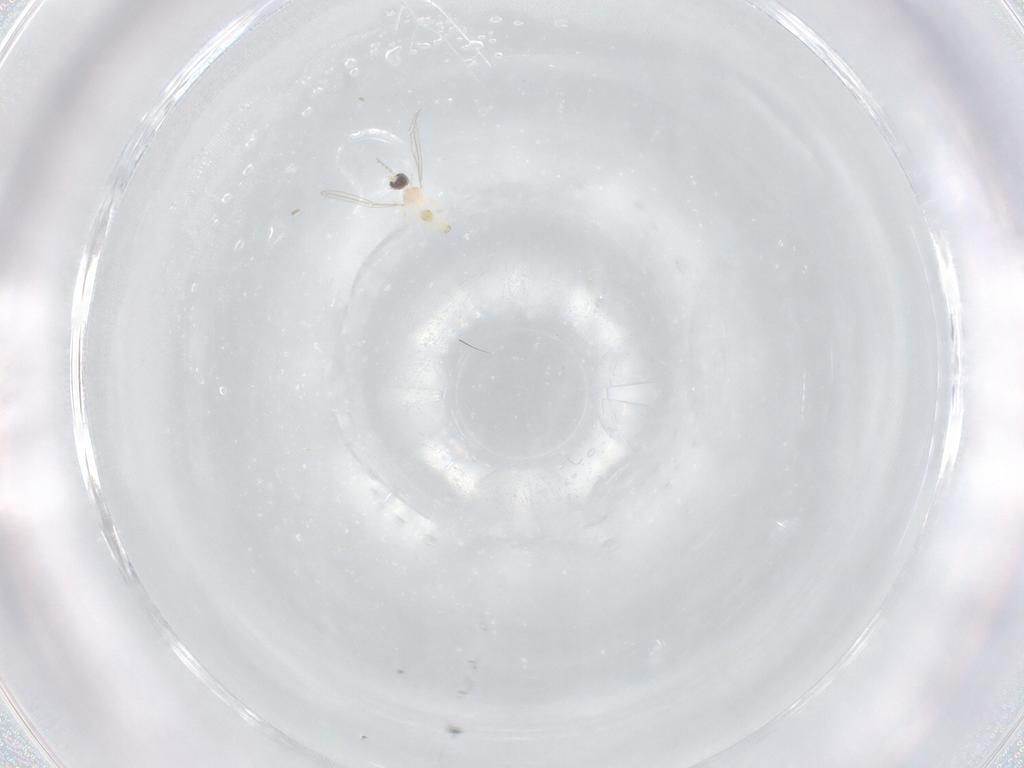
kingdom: Animalia
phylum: Arthropoda
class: Insecta
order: Diptera
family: Cecidomyiidae
